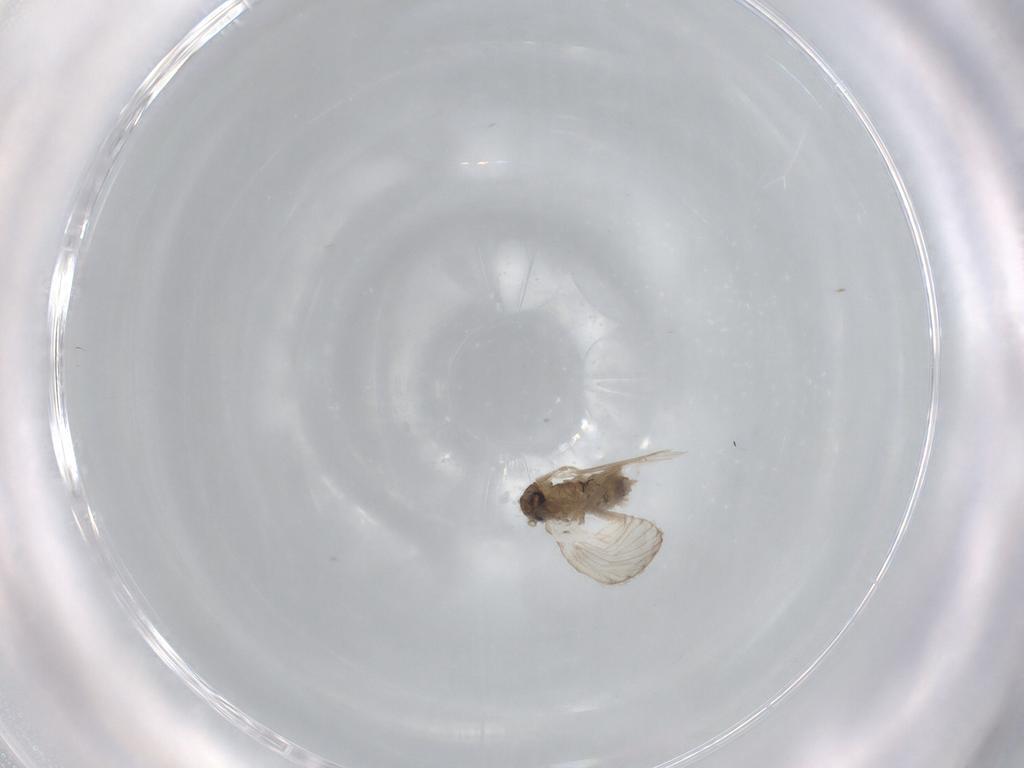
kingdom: Animalia
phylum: Arthropoda
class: Insecta
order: Diptera
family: Psychodidae
